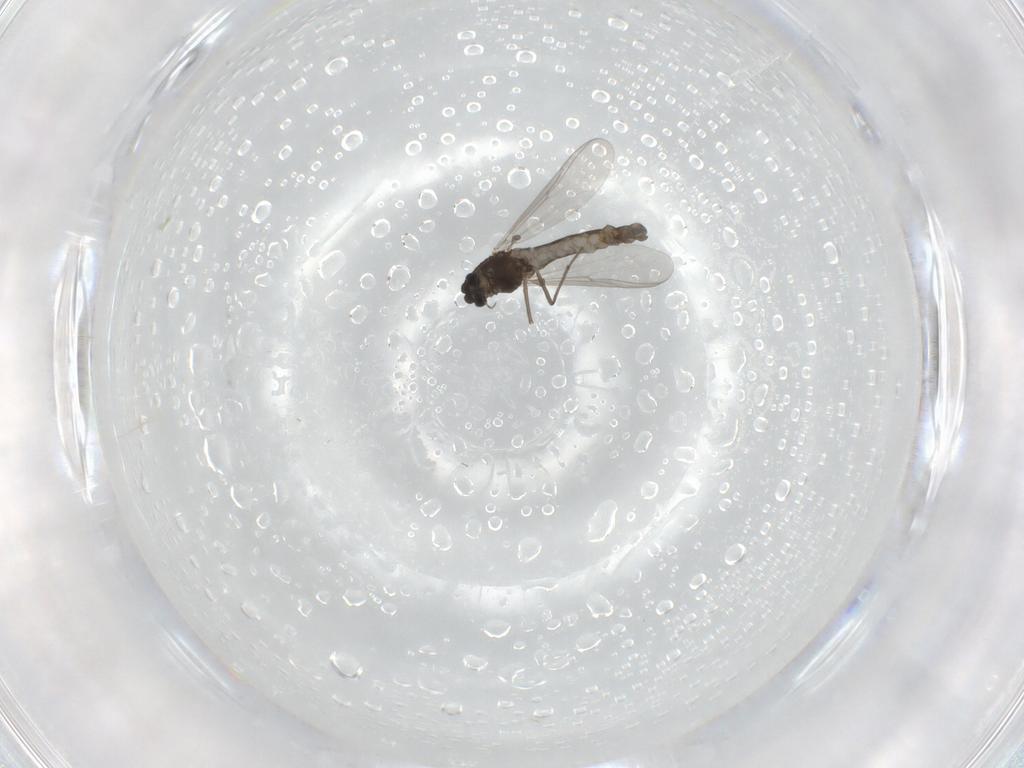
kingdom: Animalia
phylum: Arthropoda
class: Insecta
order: Diptera
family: Chironomidae
